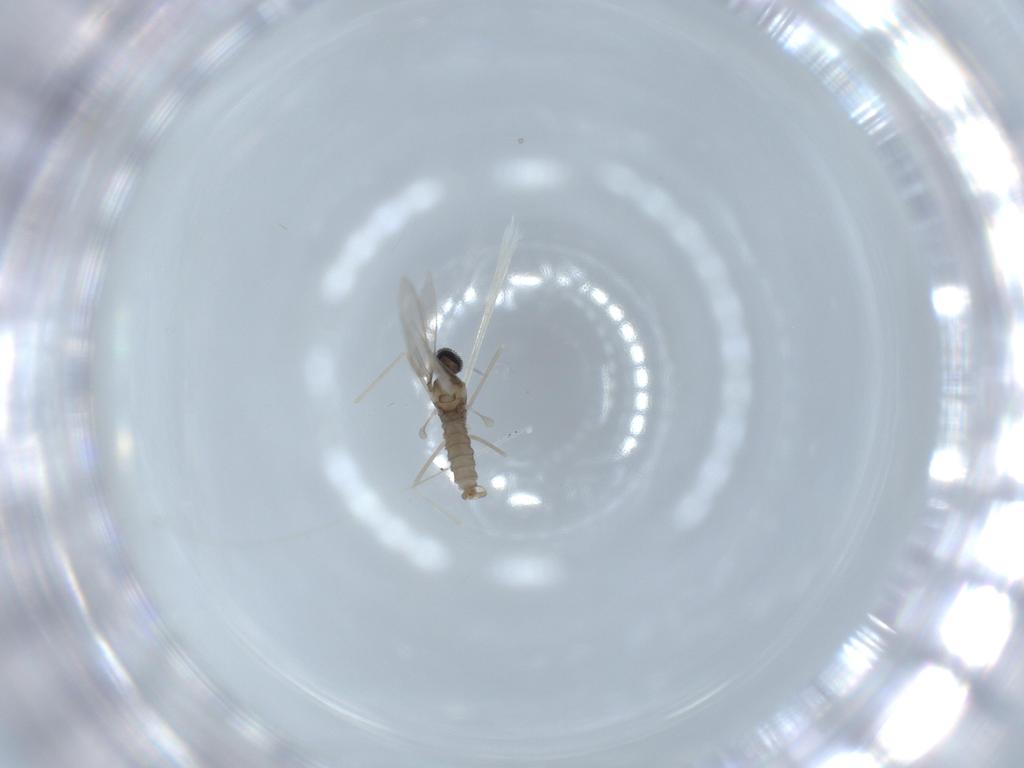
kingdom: Animalia
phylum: Arthropoda
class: Insecta
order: Diptera
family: Cecidomyiidae
